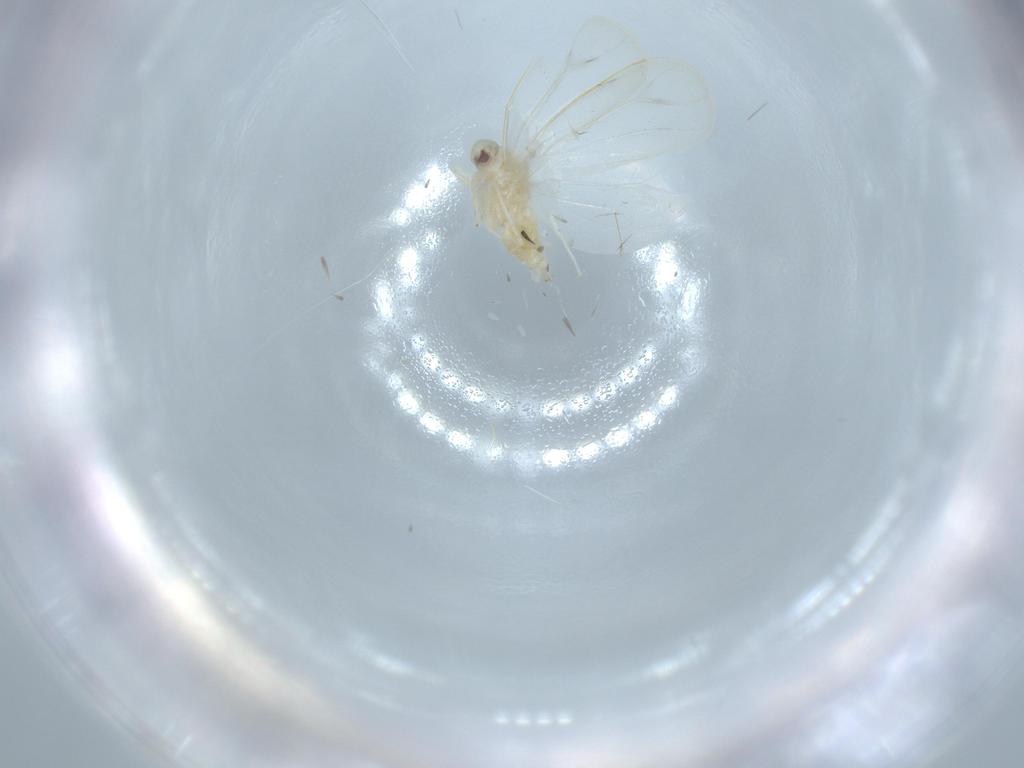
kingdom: Animalia
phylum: Arthropoda
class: Insecta
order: Hemiptera
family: Aleyrodidae
